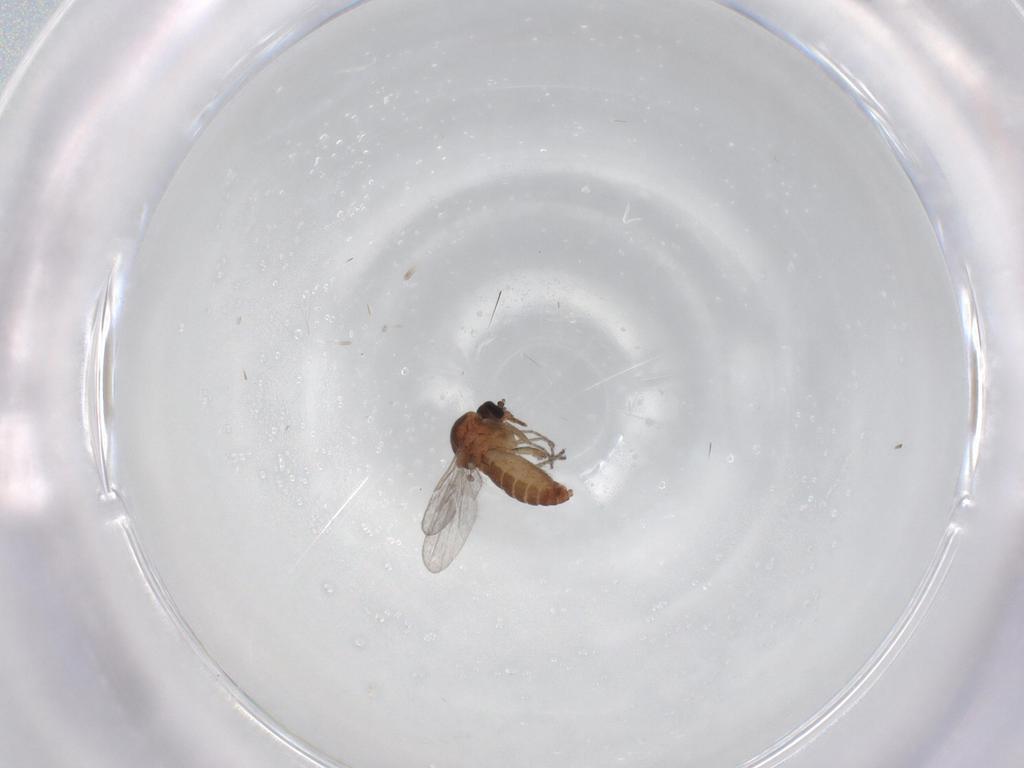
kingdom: Animalia
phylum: Arthropoda
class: Insecta
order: Diptera
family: Ceratopogonidae
